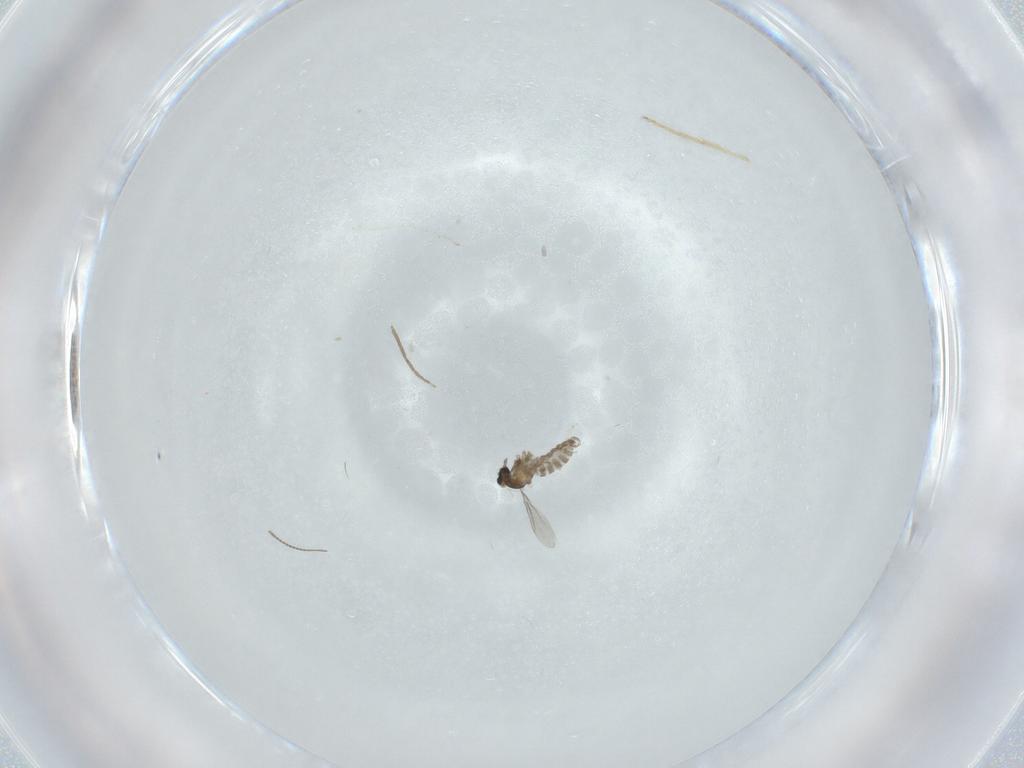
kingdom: Animalia
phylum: Arthropoda
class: Insecta
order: Diptera
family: Cecidomyiidae
